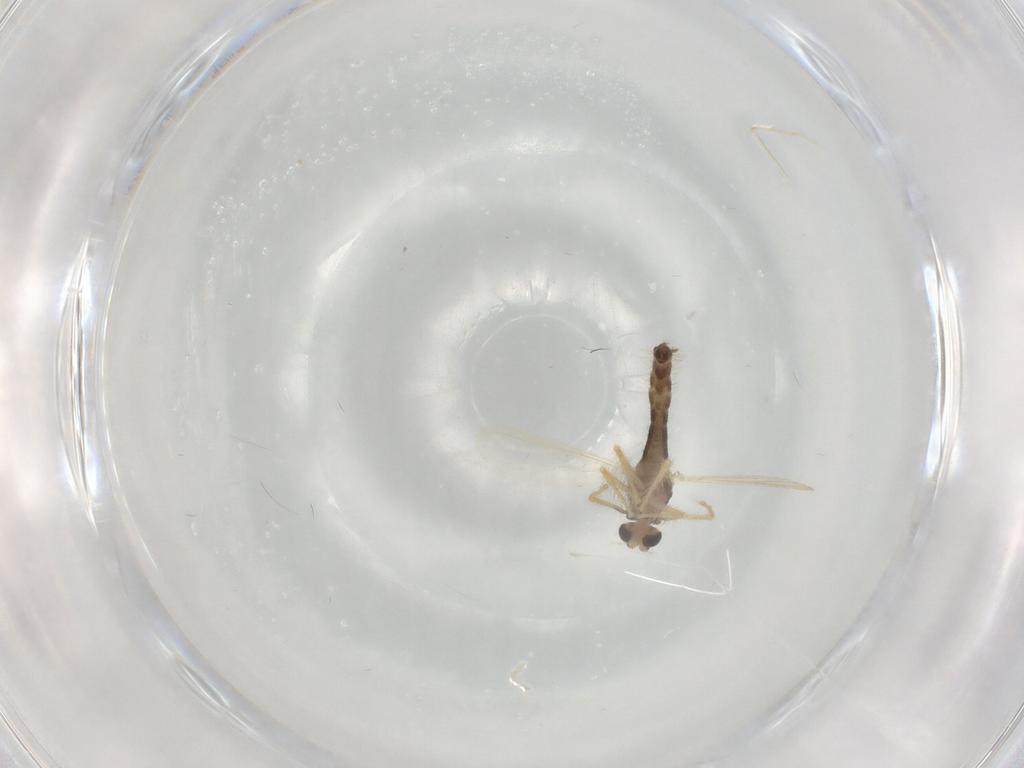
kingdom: Animalia
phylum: Arthropoda
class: Insecta
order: Diptera
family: Chironomidae
